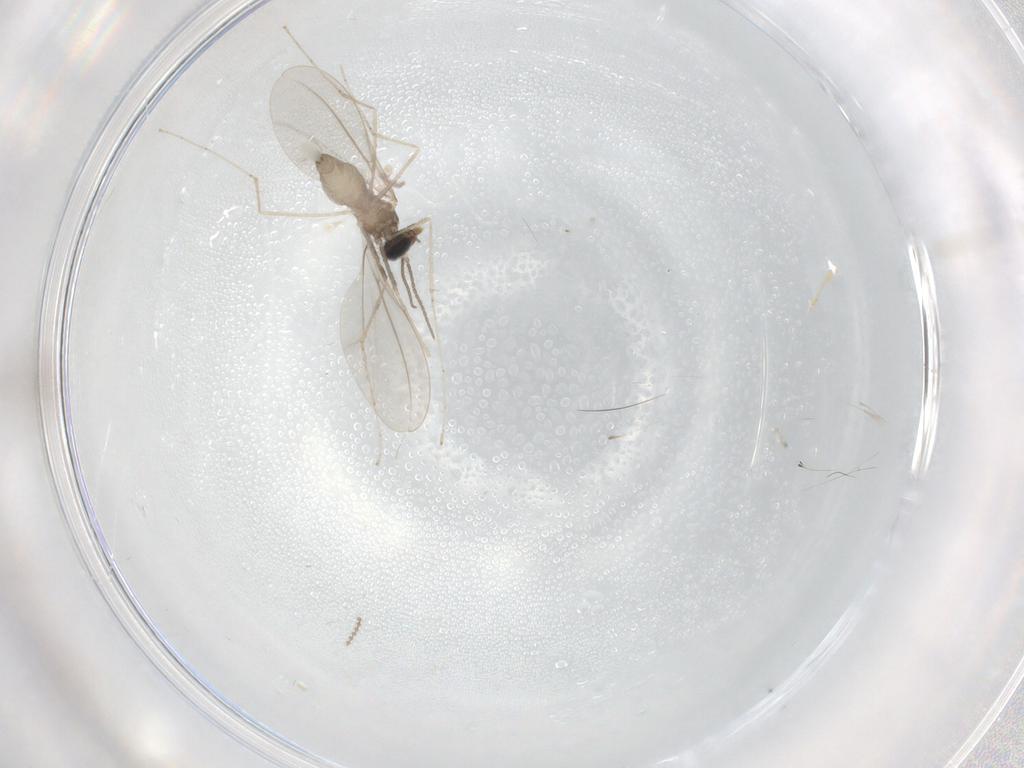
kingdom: Animalia
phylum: Arthropoda
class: Insecta
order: Diptera
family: Cecidomyiidae
